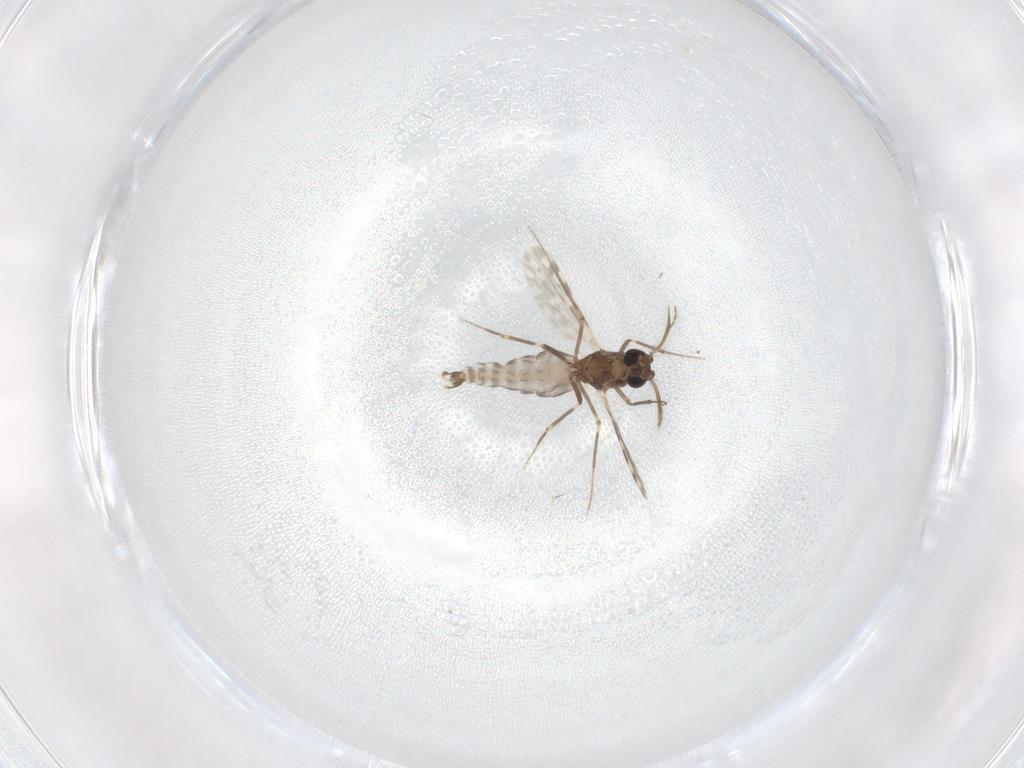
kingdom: Animalia
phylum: Arthropoda
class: Insecta
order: Diptera
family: Ceratopogonidae
